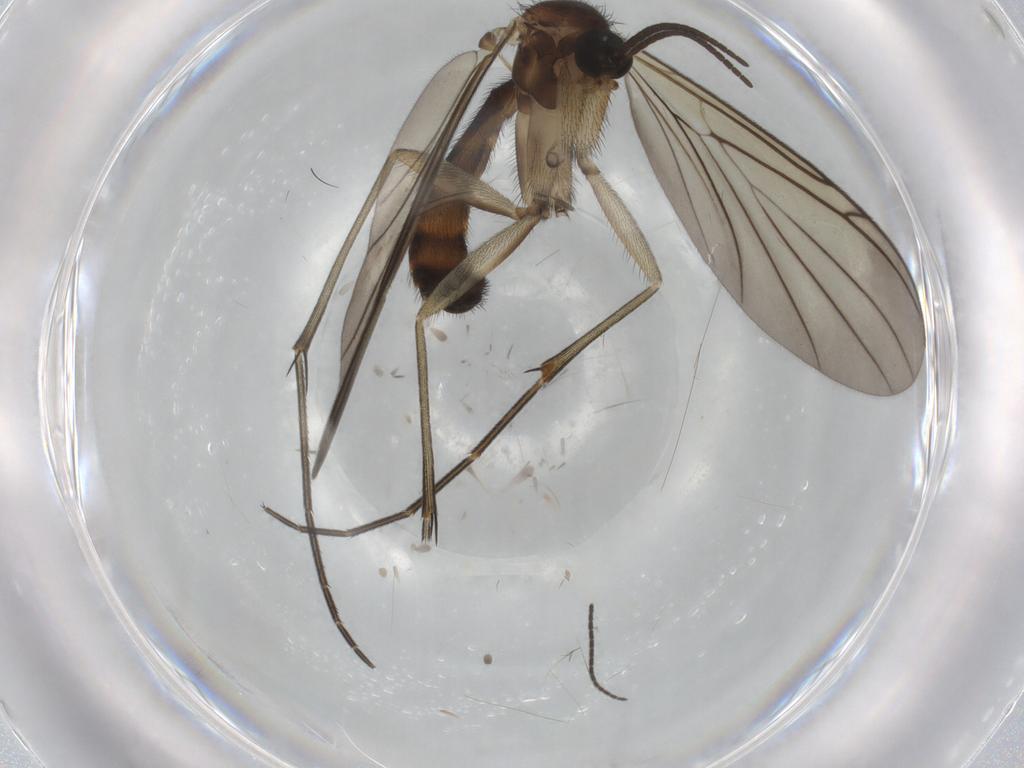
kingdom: Animalia
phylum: Arthropoda
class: Insecta
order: Diptera
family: Keroplatidae
